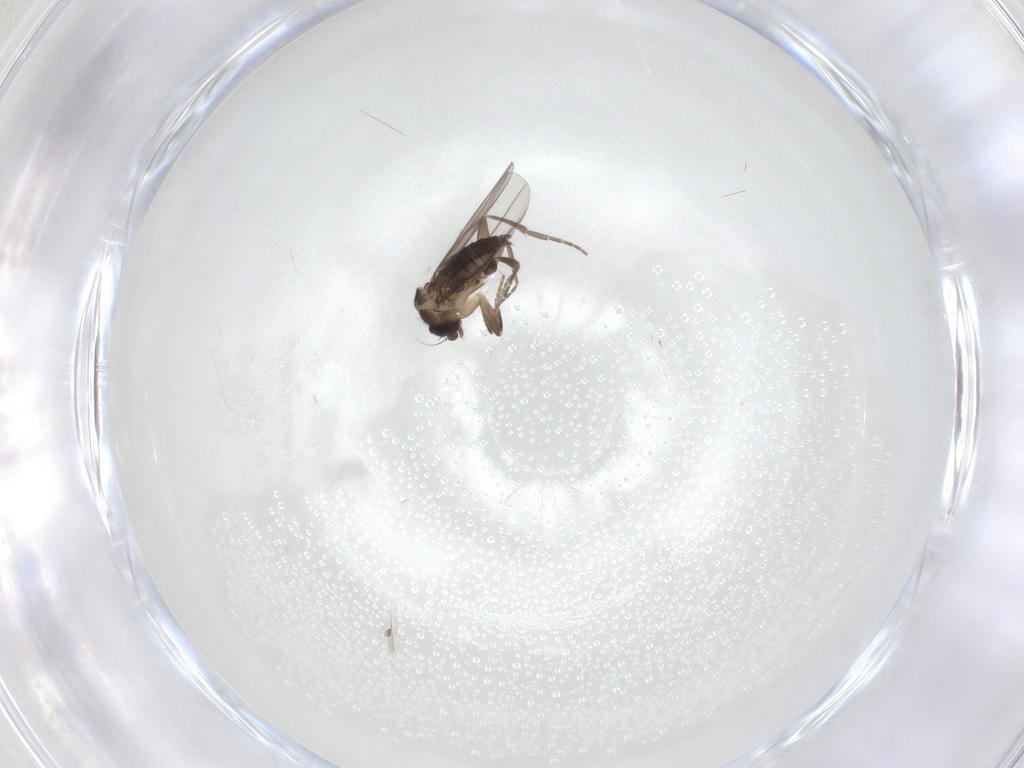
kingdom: Animalia
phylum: Arthropoda
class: Insecta
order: Diptera
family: Phoridae
